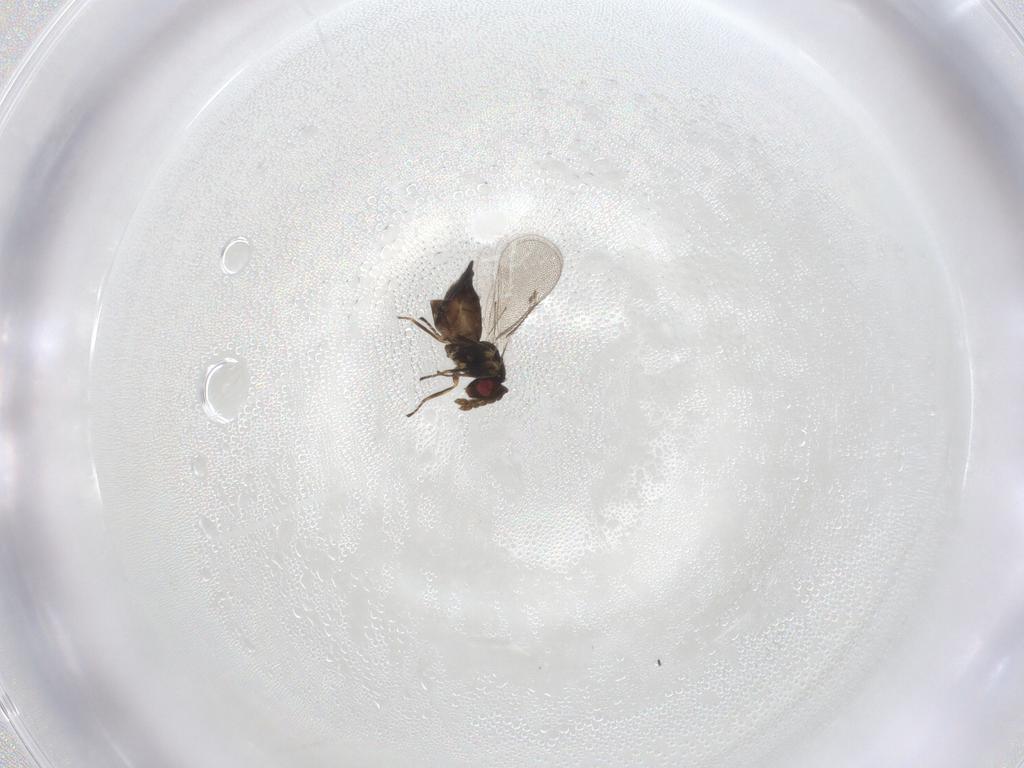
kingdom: Animalia
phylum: Arthropoda
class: Insecta
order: Hymenoptera
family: Eulophidae
